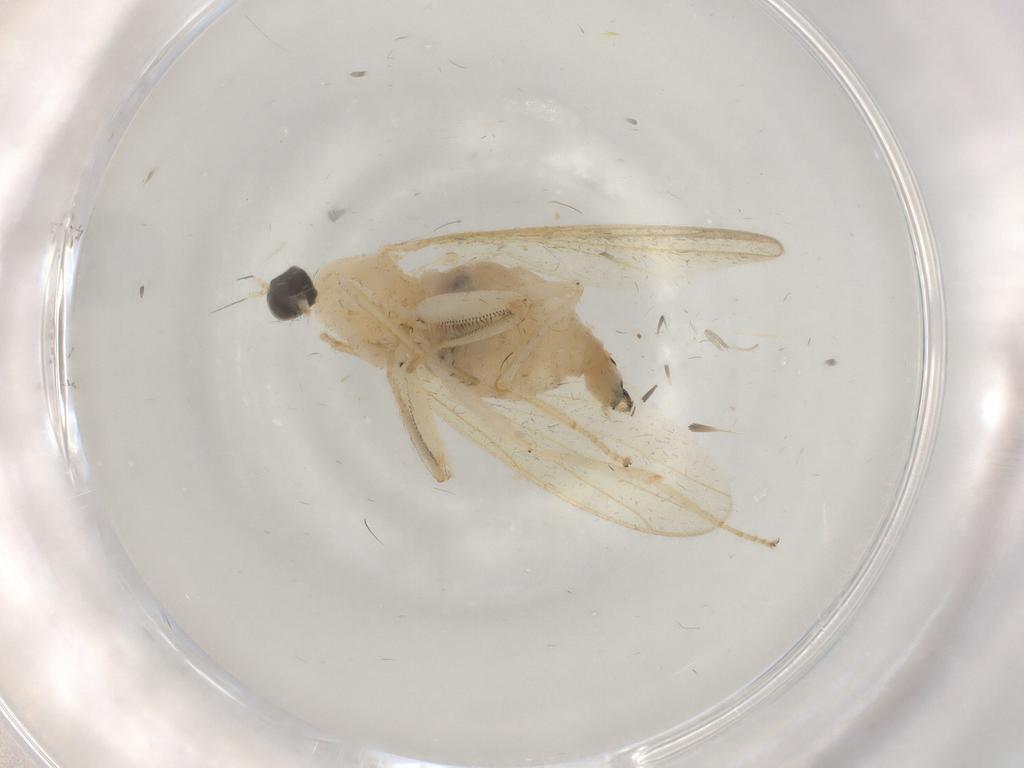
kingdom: Animalia
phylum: Arthropoda
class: Insecta
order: Diptera
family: Hybotidae
